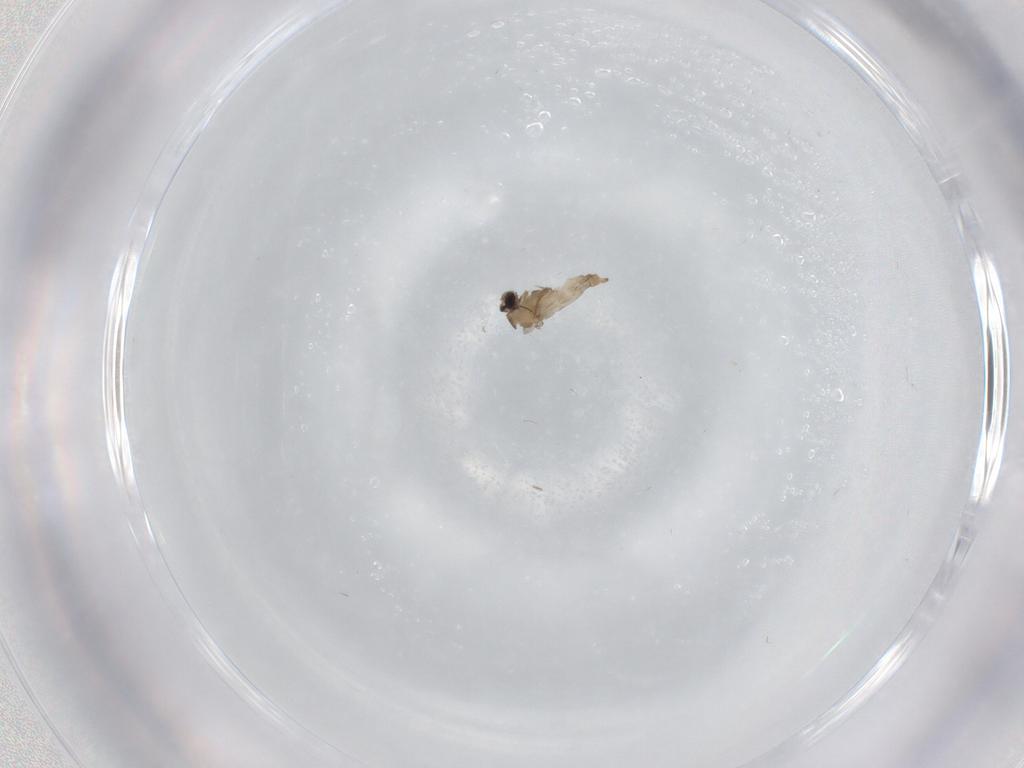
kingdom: Animalia
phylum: Arthropoda
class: Insecta
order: Diptera
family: Cecidomyiidae
